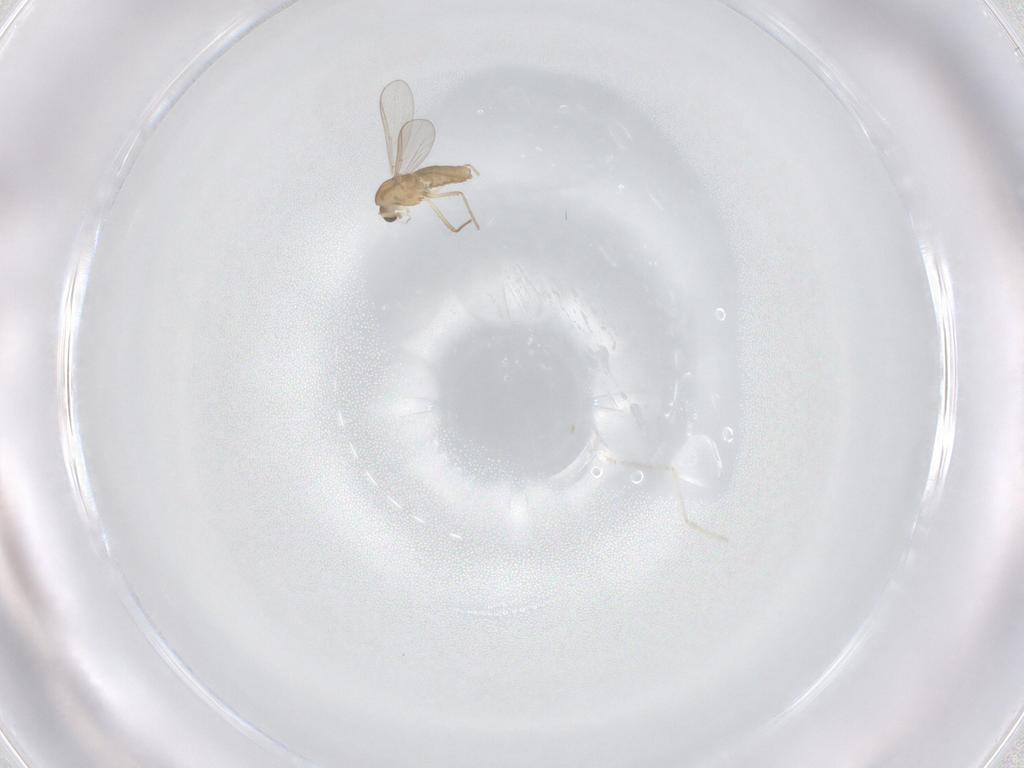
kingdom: Animalia
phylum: Arthropoda
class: Insecta
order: Diptera
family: Chironomidae
